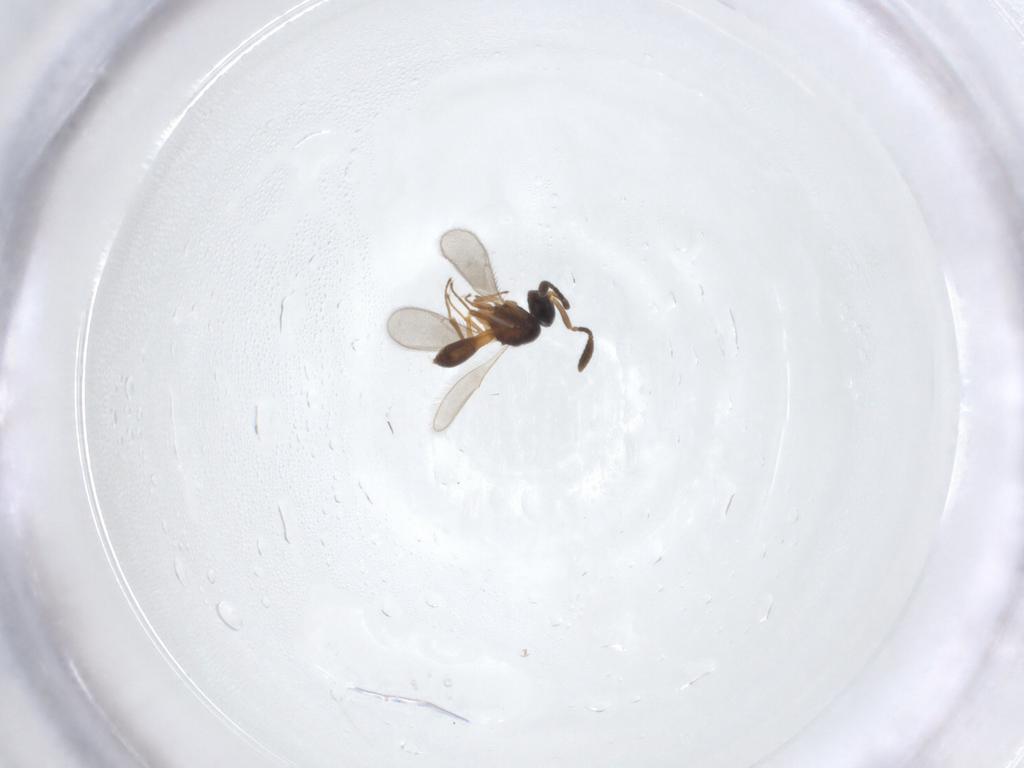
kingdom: Animalia
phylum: Arthropoda
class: Insecta
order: Hymenoptera
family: Scelionidae
